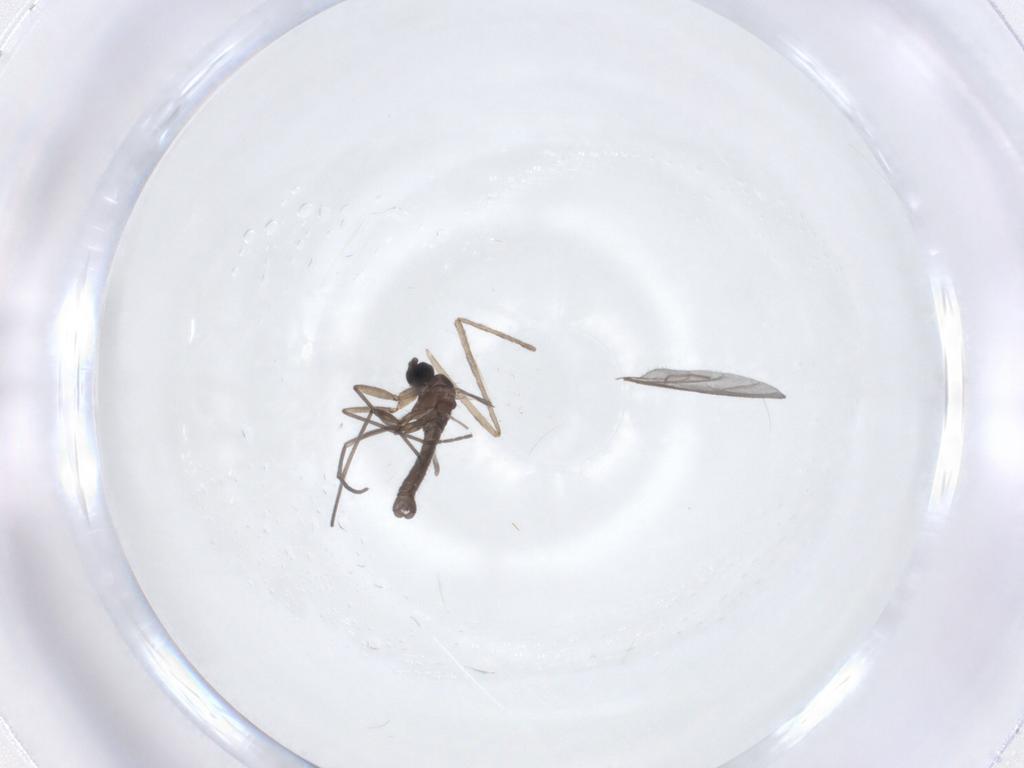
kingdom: Animalia
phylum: Arthropoda
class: Insecta
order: Diptera
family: Cecidomyiidae
